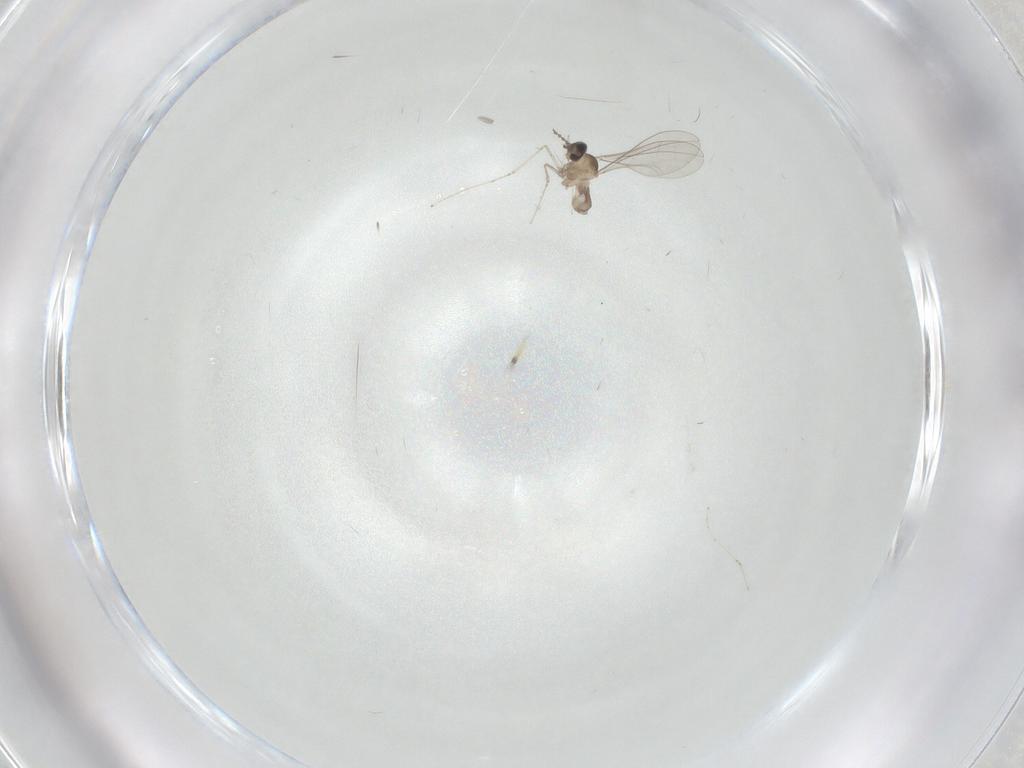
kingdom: Animalia
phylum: Arthropoda
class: Insecta
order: Diptera
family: Cecidomyiidae
